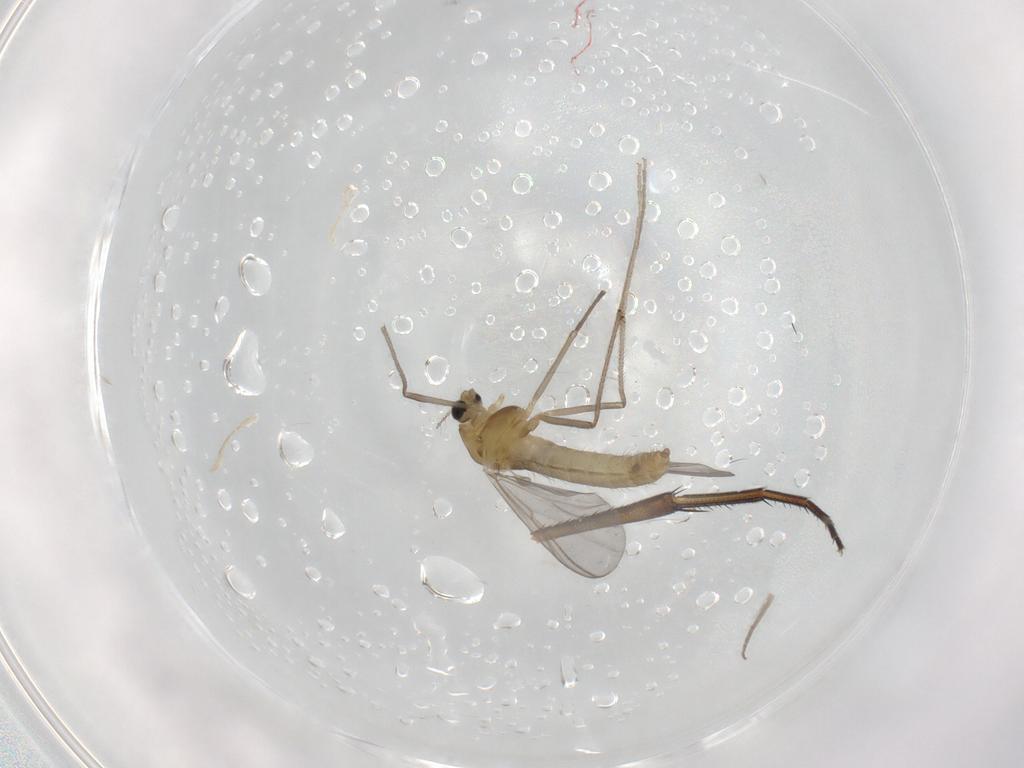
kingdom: Animalia
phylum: Arthropoda
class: Insecta
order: Diptera
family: Chironomidae
